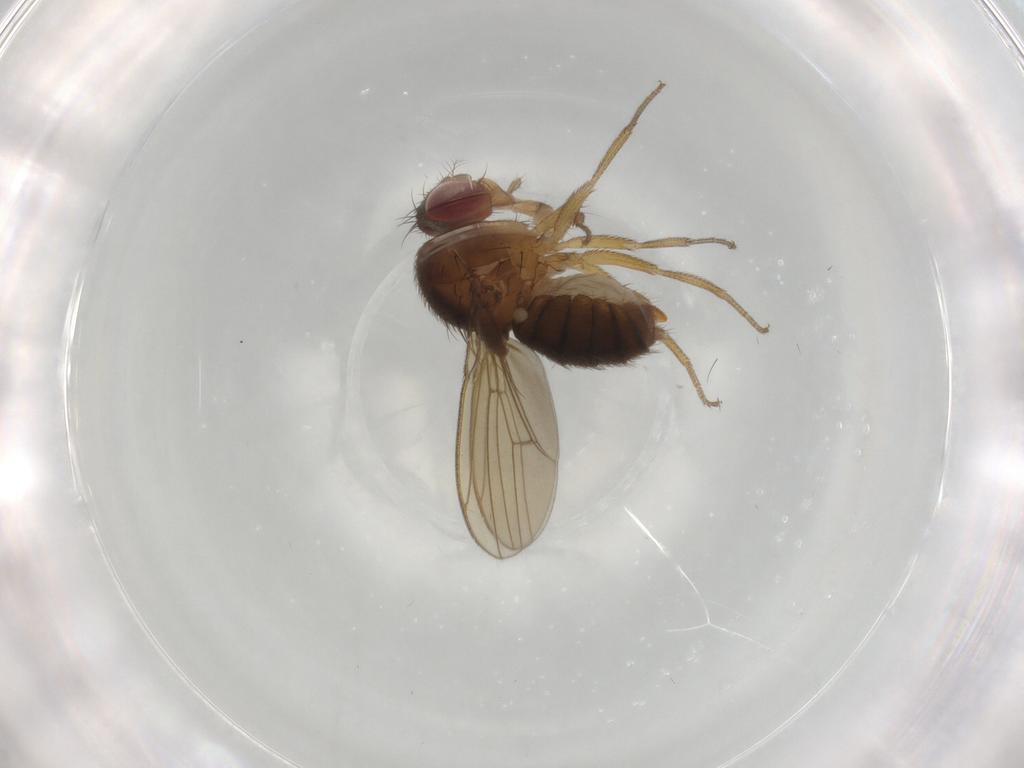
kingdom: Animalia
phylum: Arthropoda
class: Insecta
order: Diptera
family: Drosophilidae
